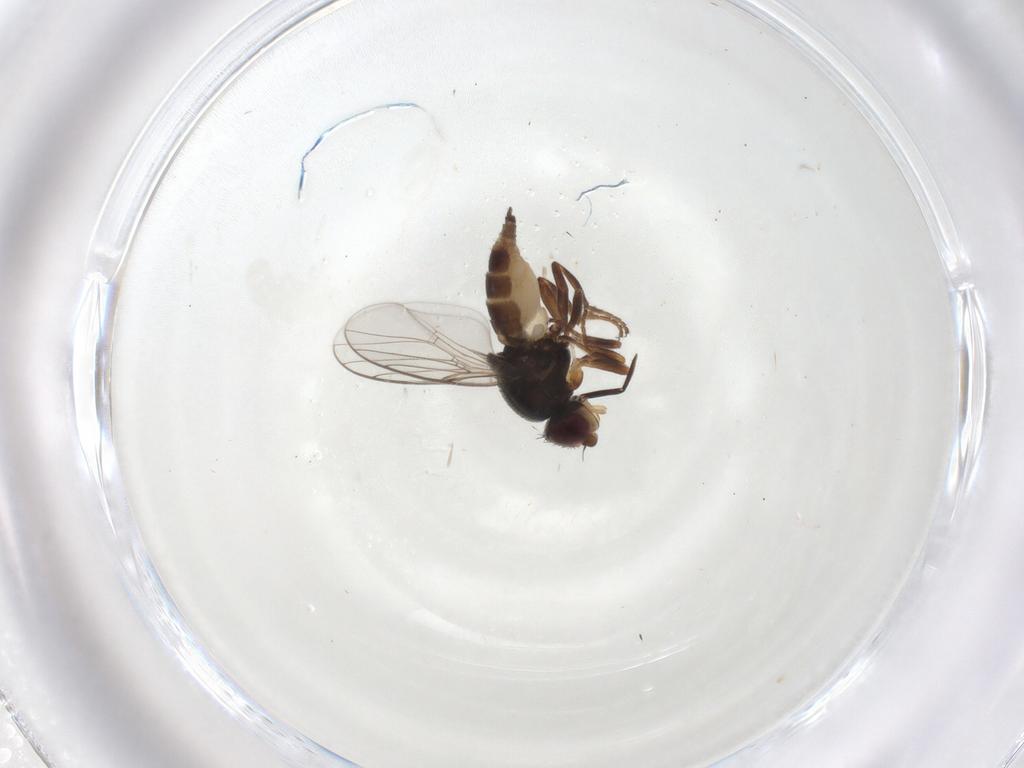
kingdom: Animalia
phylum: Arthropoda
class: Insecta
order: Diptera
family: Chloropidae
